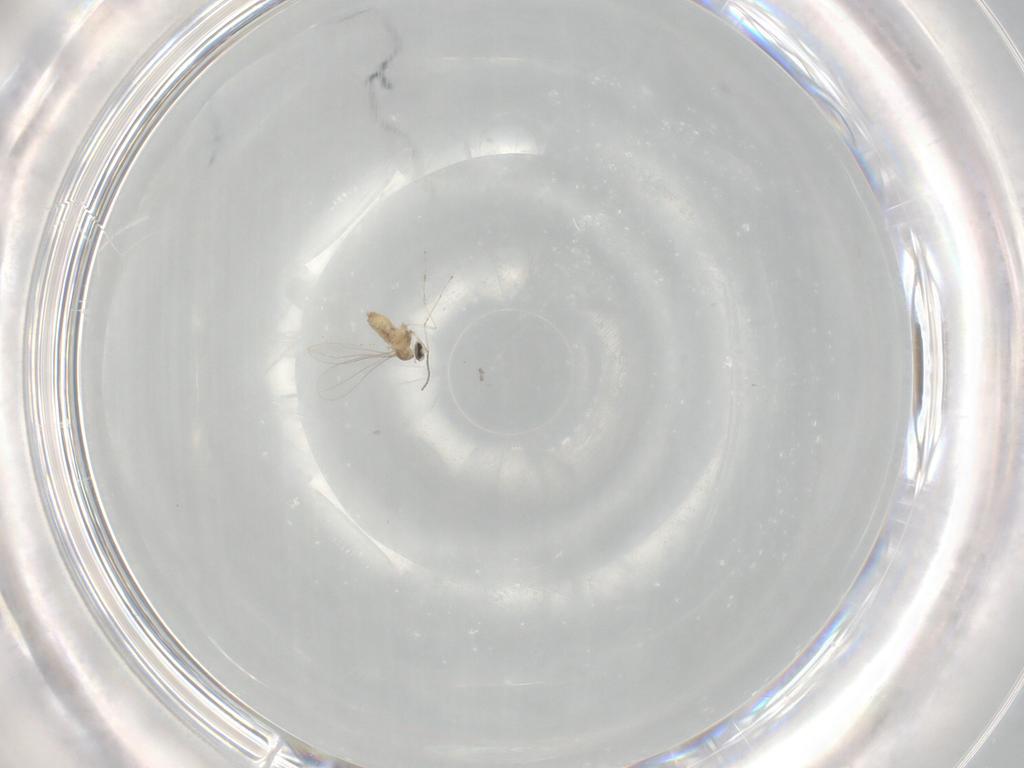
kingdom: Animalia
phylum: Arthropoda
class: Insecta
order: Diptera
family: Cecidomyiidae
